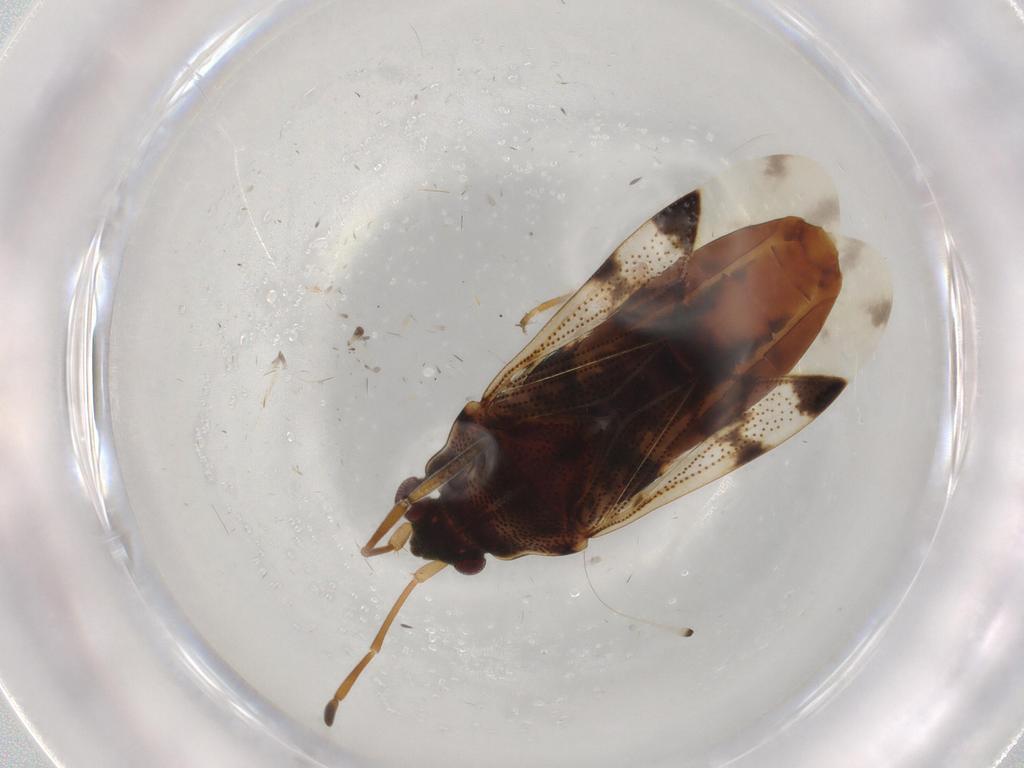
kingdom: Animalia
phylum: Arthropoda
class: Insecta
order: Hemiptera
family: Rhyparochromidae
